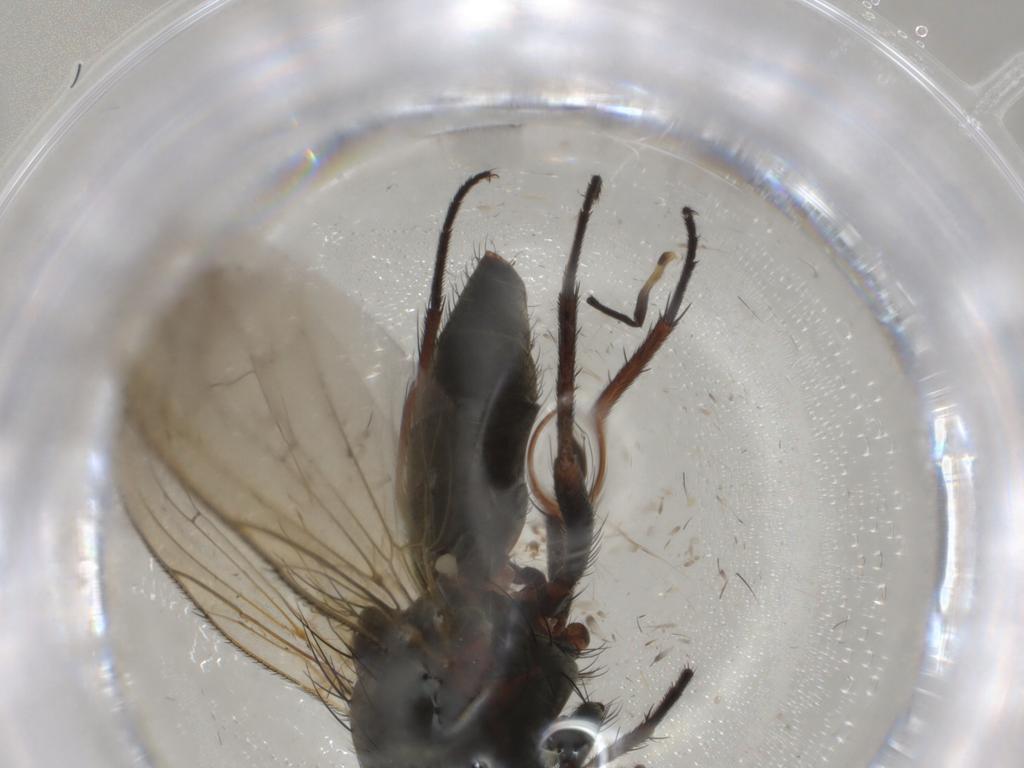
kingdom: Animalia
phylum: Arthropoda
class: Insecta
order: Diptera
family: Anthomyiidae
